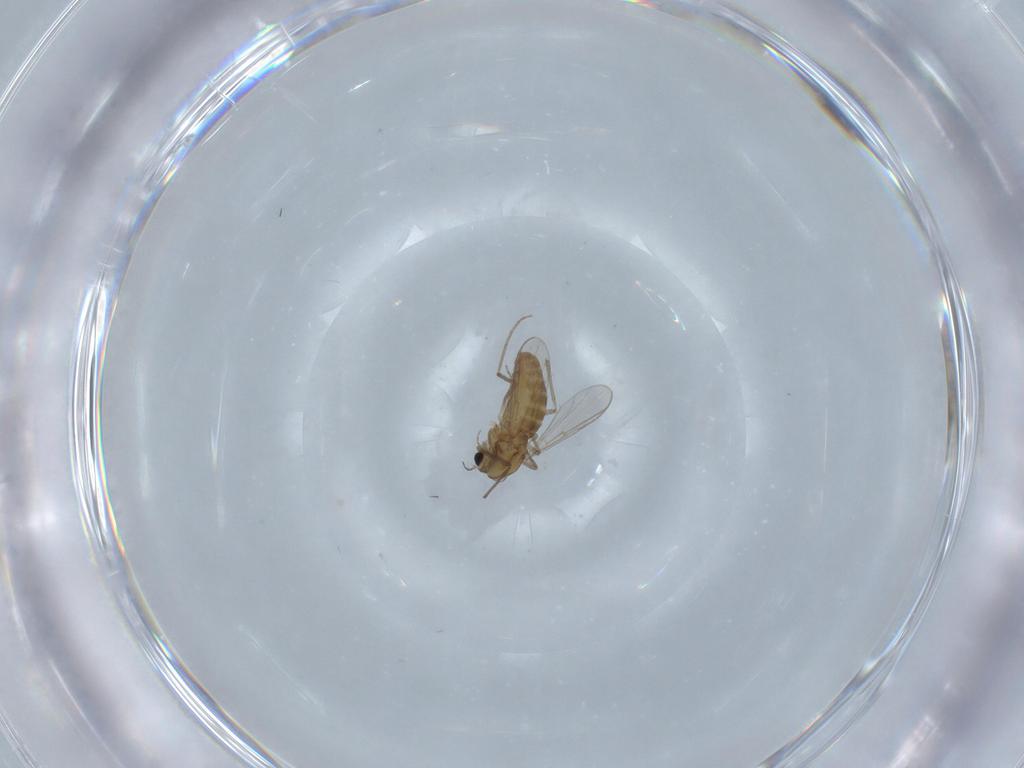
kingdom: Animalia
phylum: Arthropoda
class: Insecta
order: Diptera
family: Chironomidae
